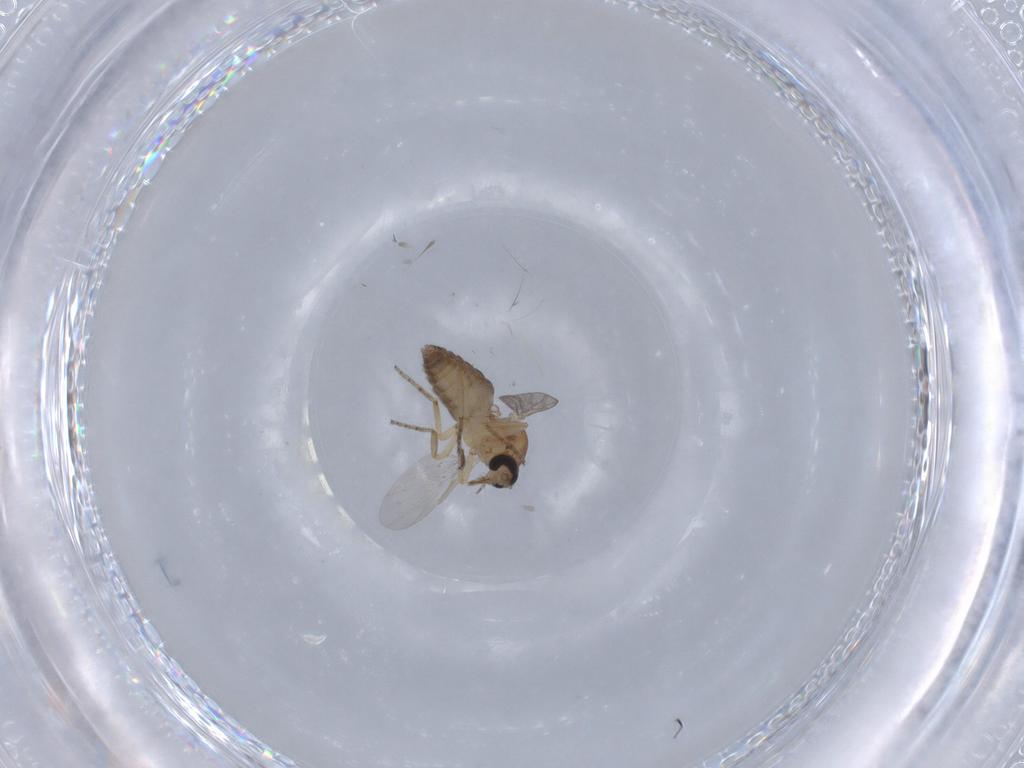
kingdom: Animalia
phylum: Arthropoda
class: Insecta
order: Diptera
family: Ceratopogonidae
